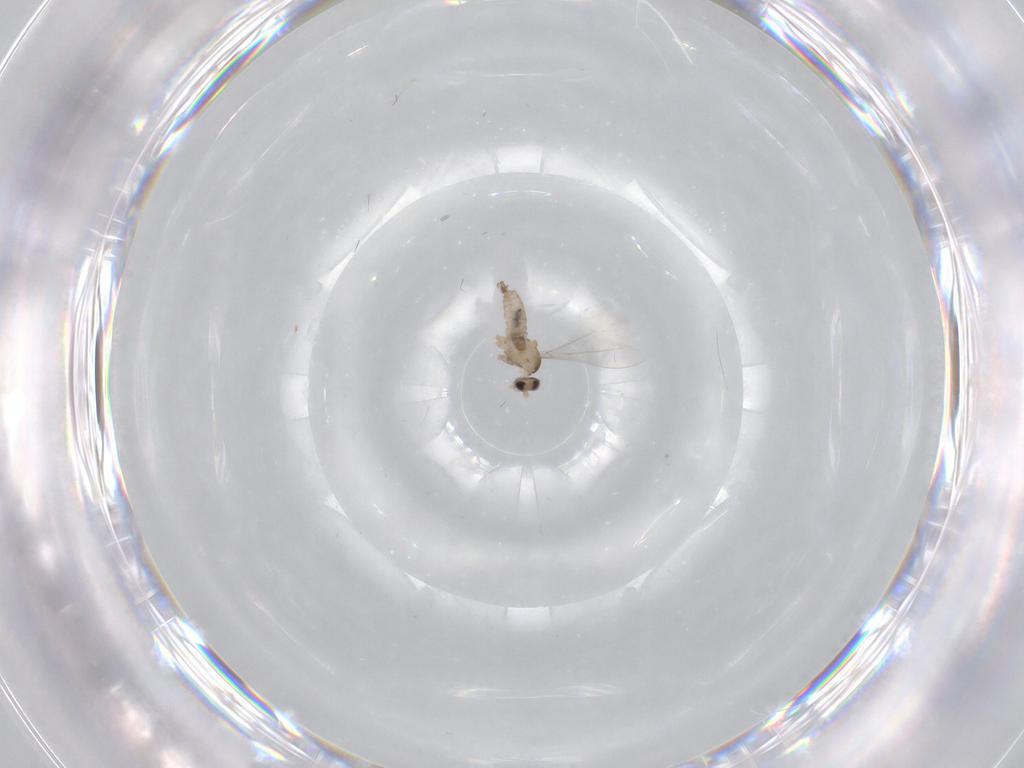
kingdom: Animalia
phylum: Arthropoda
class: Insecta
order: Diptera
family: Cecidomyiidae
